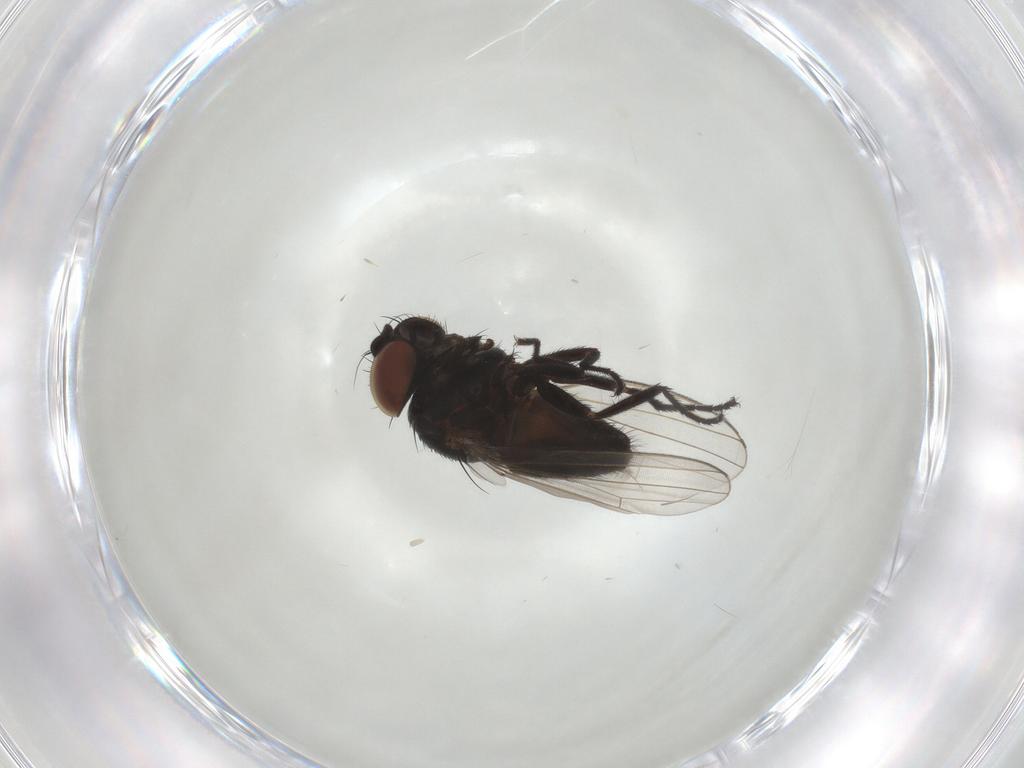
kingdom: Animalia
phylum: Arthropoda
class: Insecta
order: Diptera
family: Milichiidae
